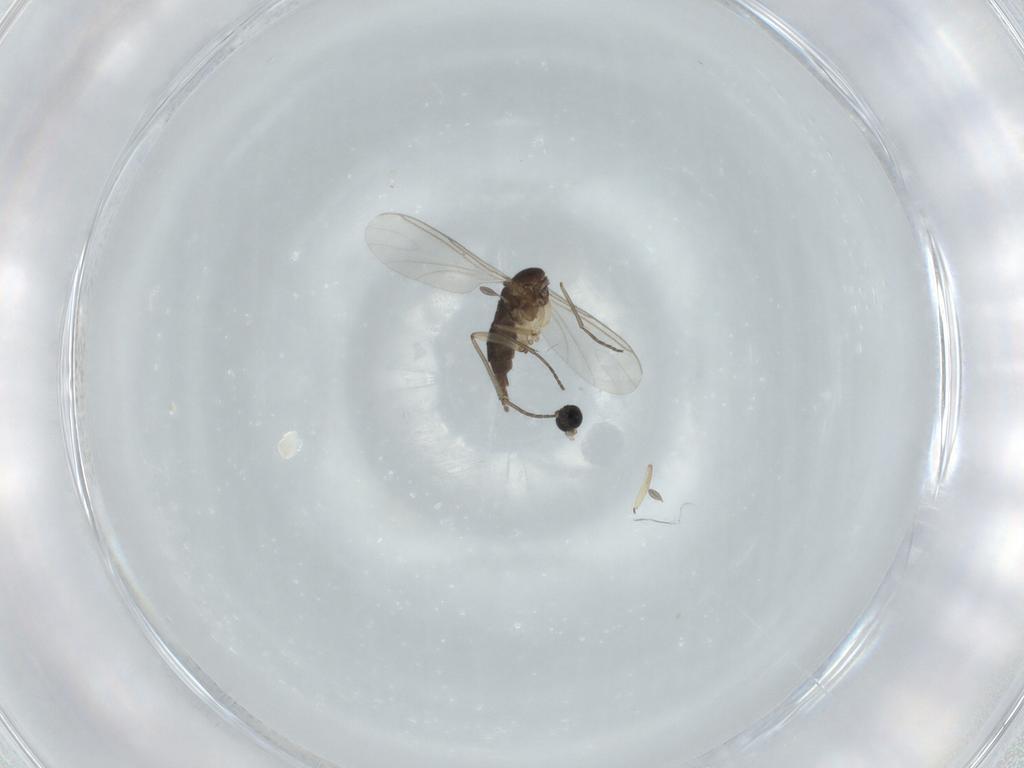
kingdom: Animalia
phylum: Arthropoda
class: Insecta
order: Diptera
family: Sciaridae
